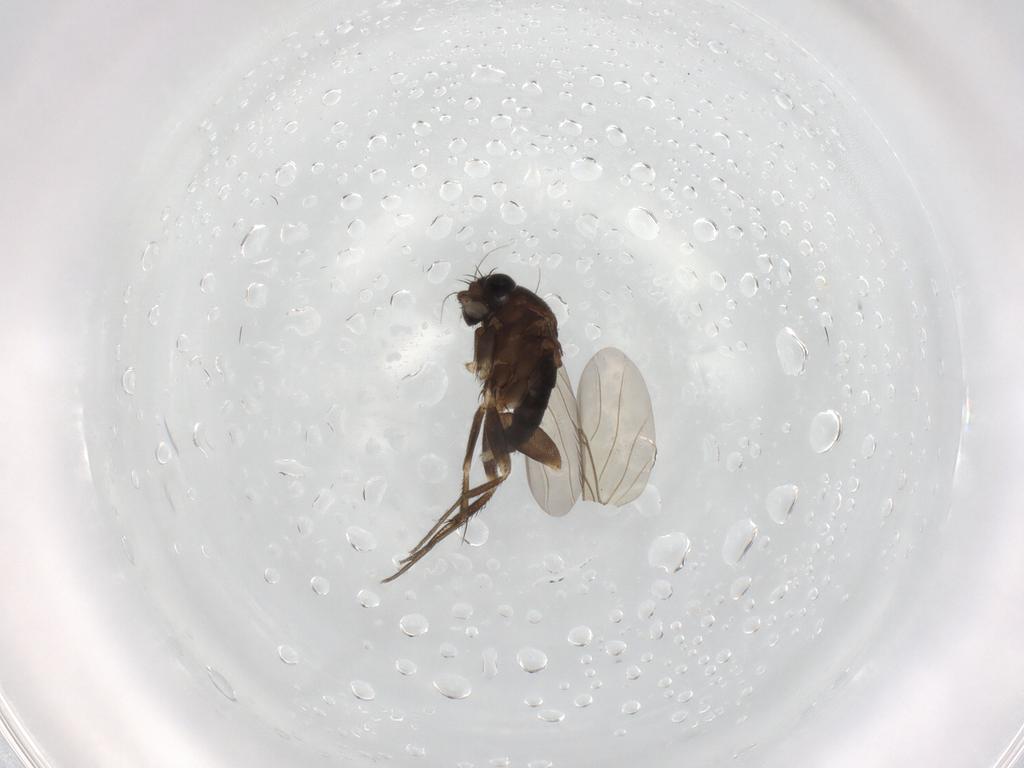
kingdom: Animalia
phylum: Arthropoda
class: Insecta
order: Diptera
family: Phoridae
